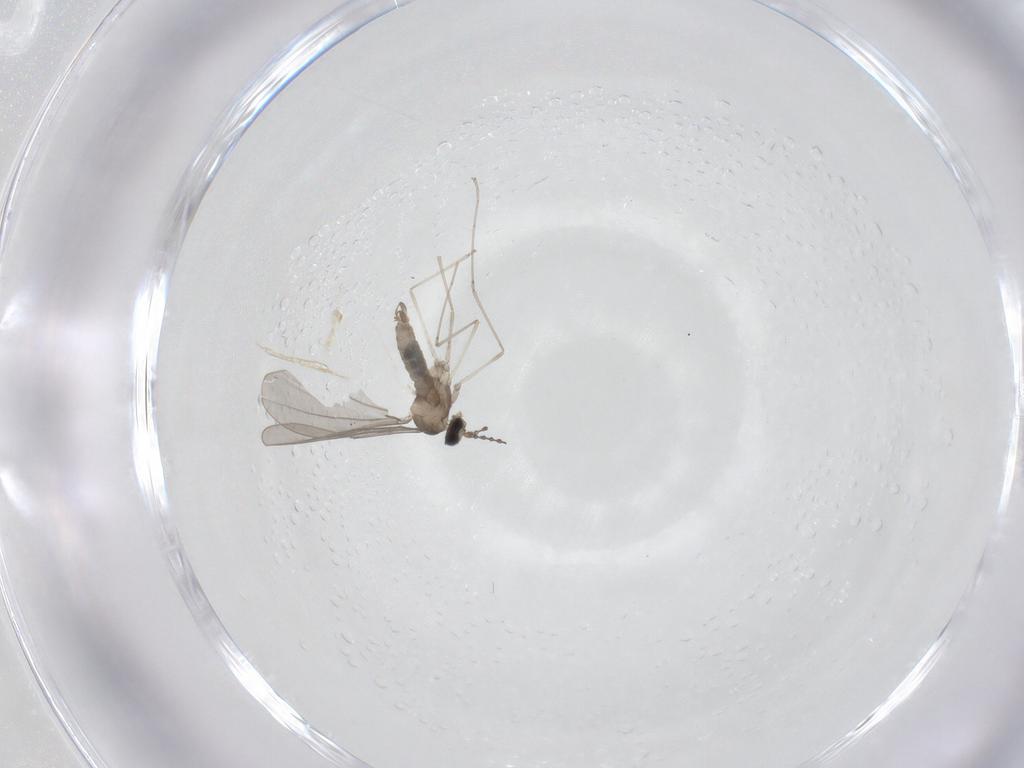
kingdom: Animalia
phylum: Arthropoda
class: Insecta
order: Diptera
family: Cecidomyiidae
